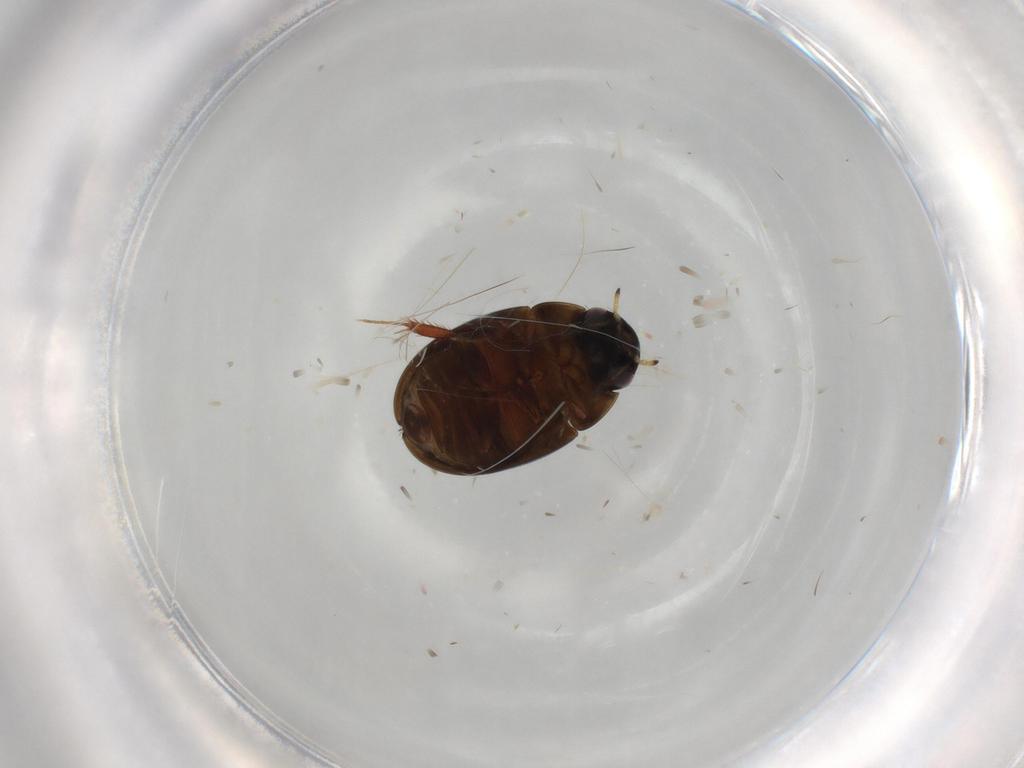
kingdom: Animalia
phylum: Arthropoda
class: Insecta
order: Coleoptera
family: Hydrophilidae
